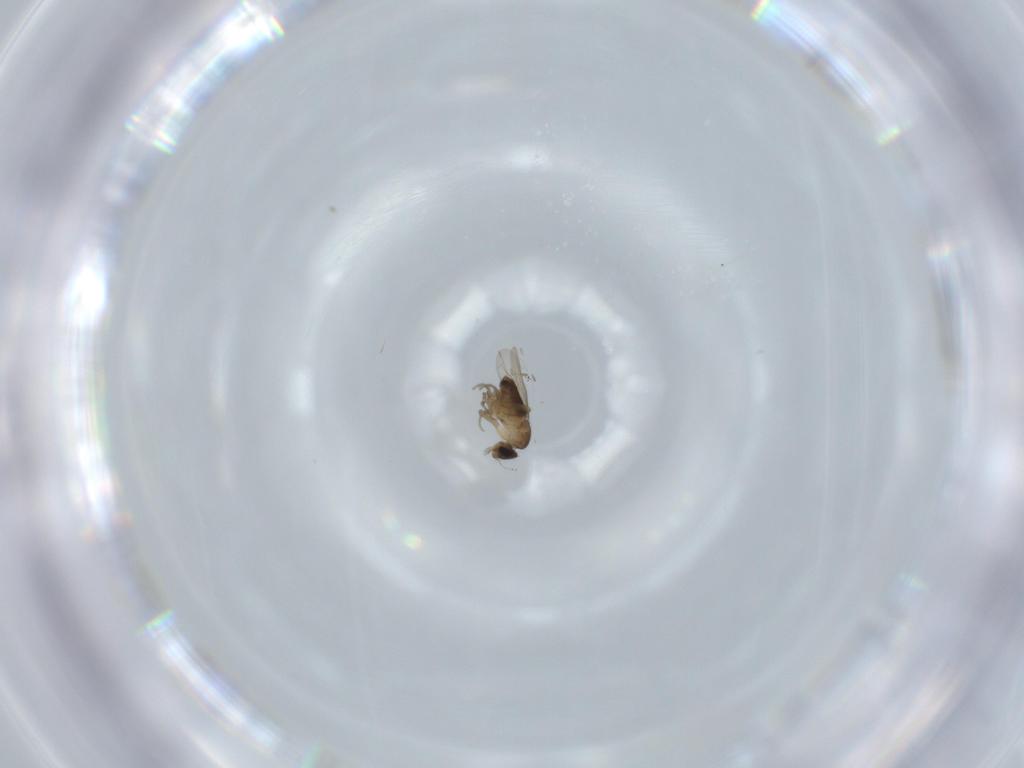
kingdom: Animalia
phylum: Arthropoda
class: Insecta
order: Diptera
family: Phoridae
